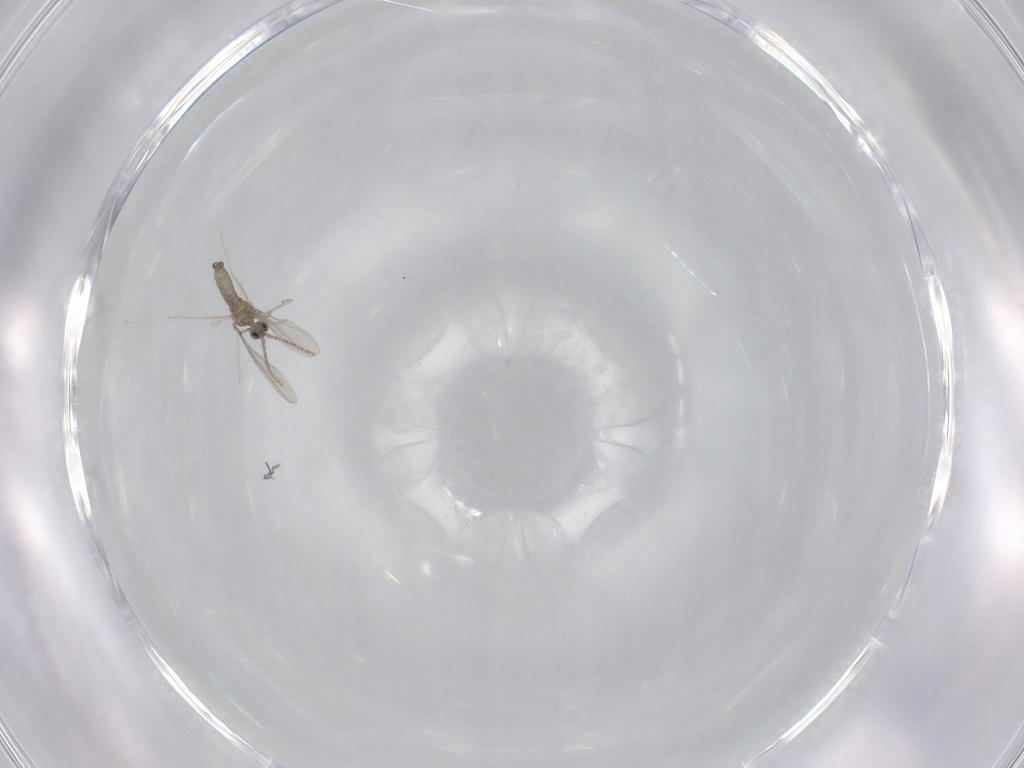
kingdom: Animalia
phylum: Arthropoda
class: Insecta
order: Diptera
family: Cecidomyiidae
